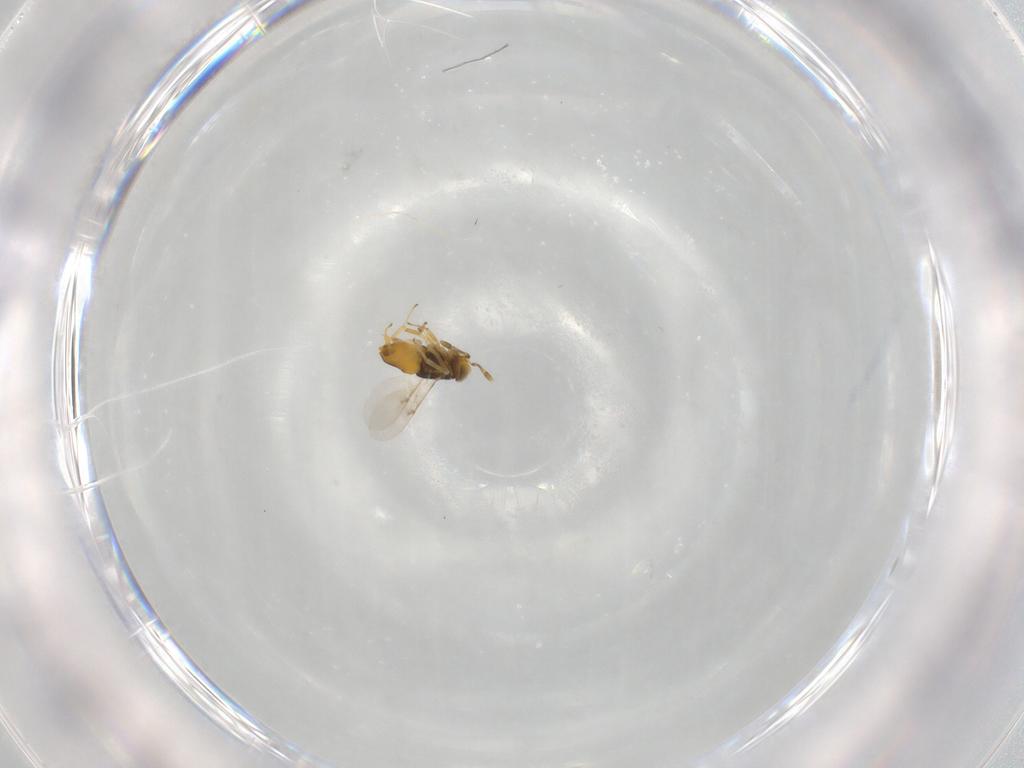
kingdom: Animalia
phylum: Arthropoda
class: Insecta
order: Hymenoptera
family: Encyrtidae
